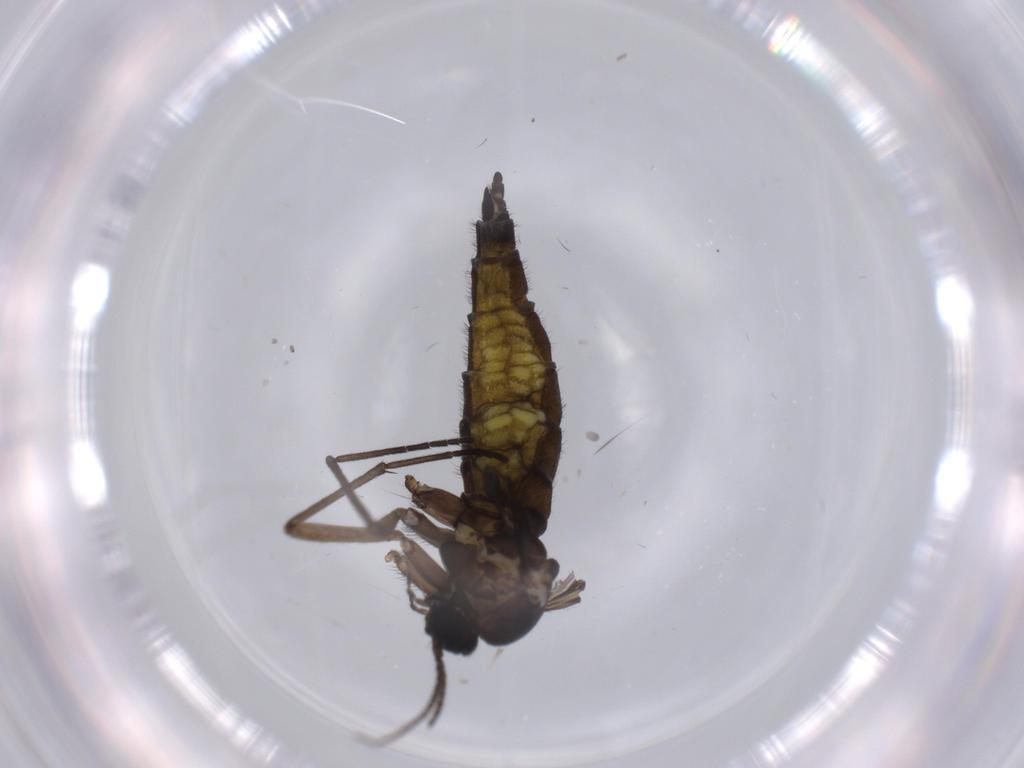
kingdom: Animalia
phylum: Arthropoda
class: Insecta
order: Diptera
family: Sciaridae
